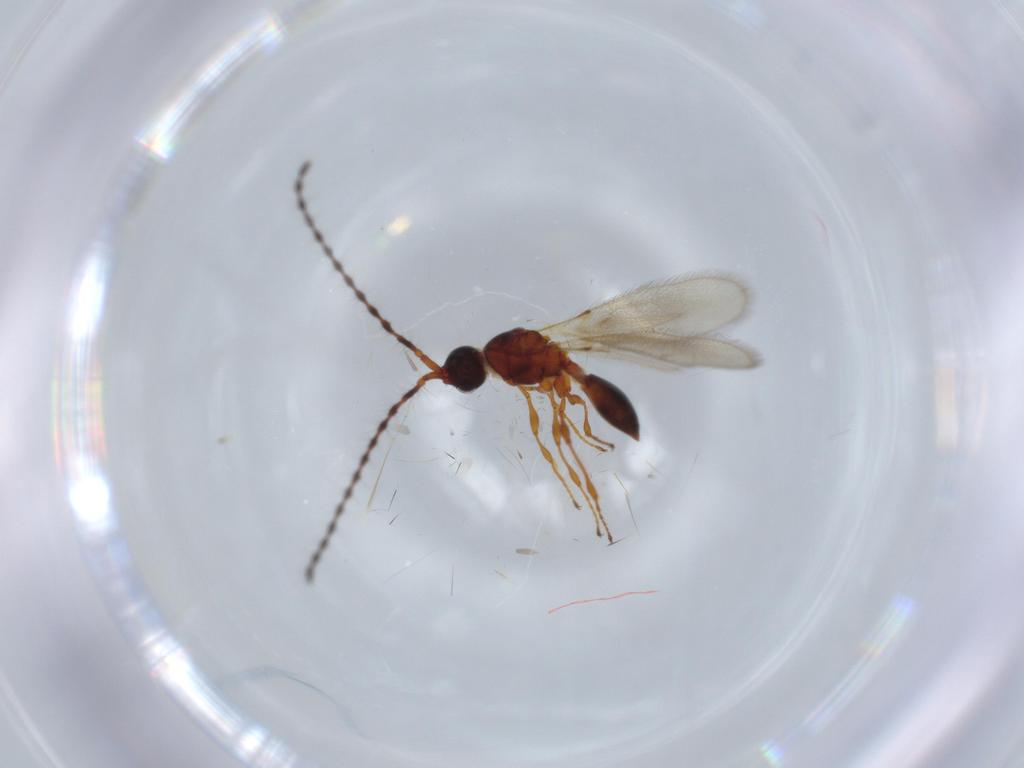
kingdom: Animalia
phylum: Arthropoda
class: Insecta
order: Hymenoptera
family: Diapriidae
